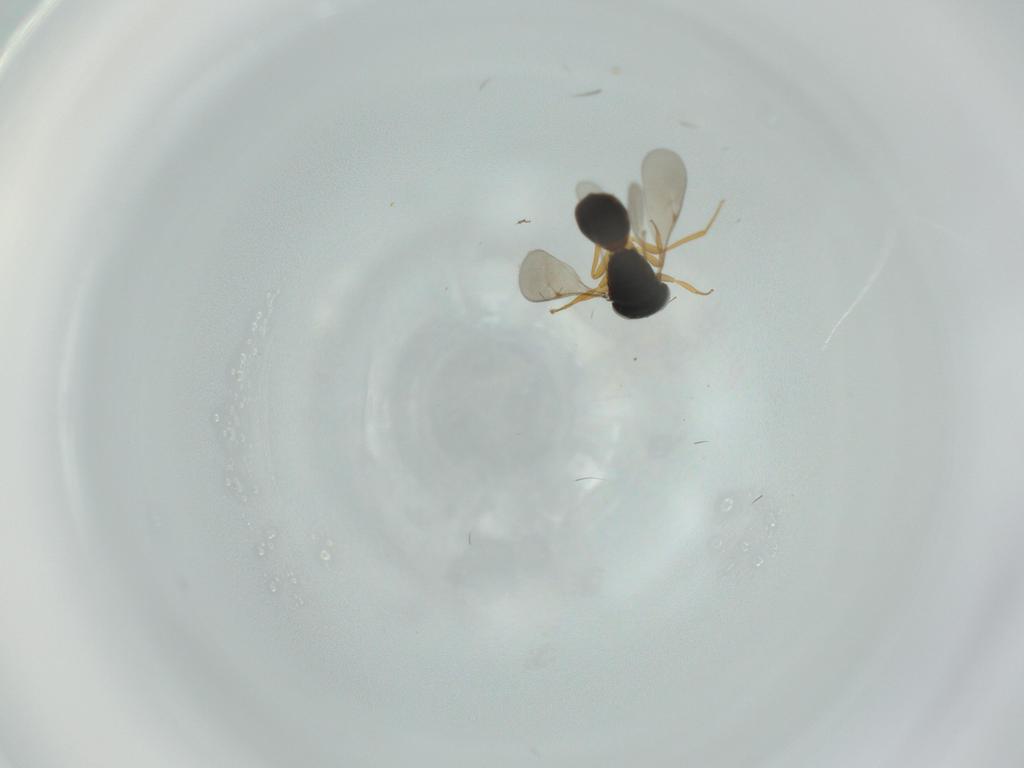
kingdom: Animalia
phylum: Arthropoda
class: Insecta
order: Hymenoptera
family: Scelionidae
